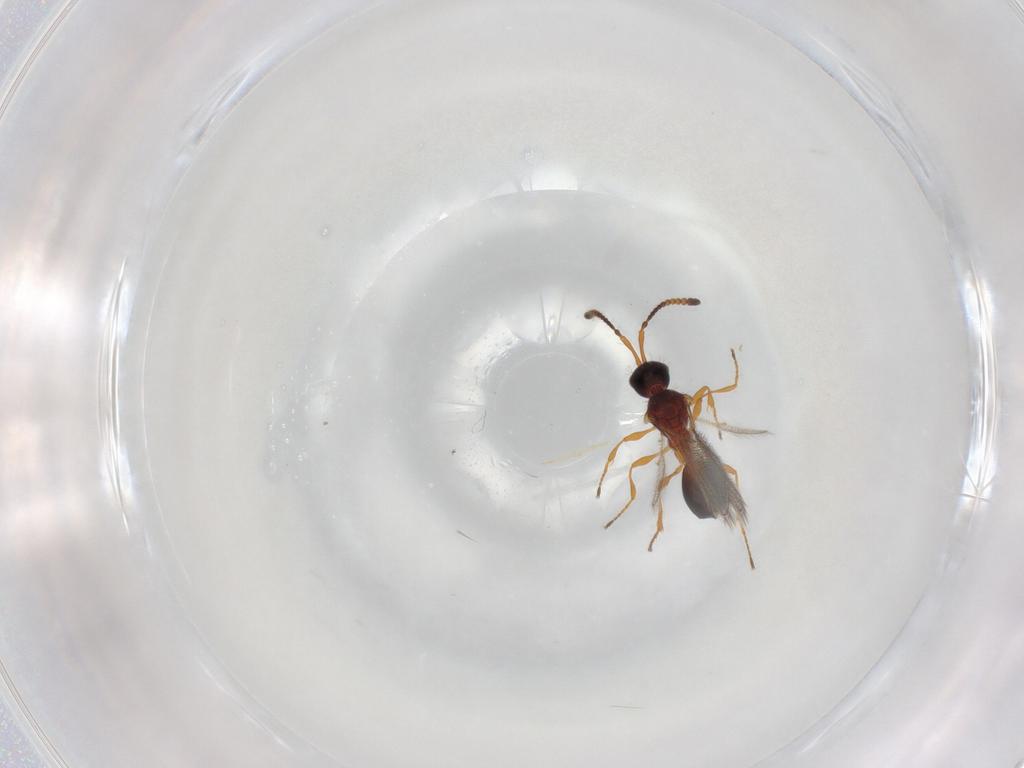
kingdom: Animalia
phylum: Arthropoda
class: Insecta
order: Hymenoptera
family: Diapriidae
